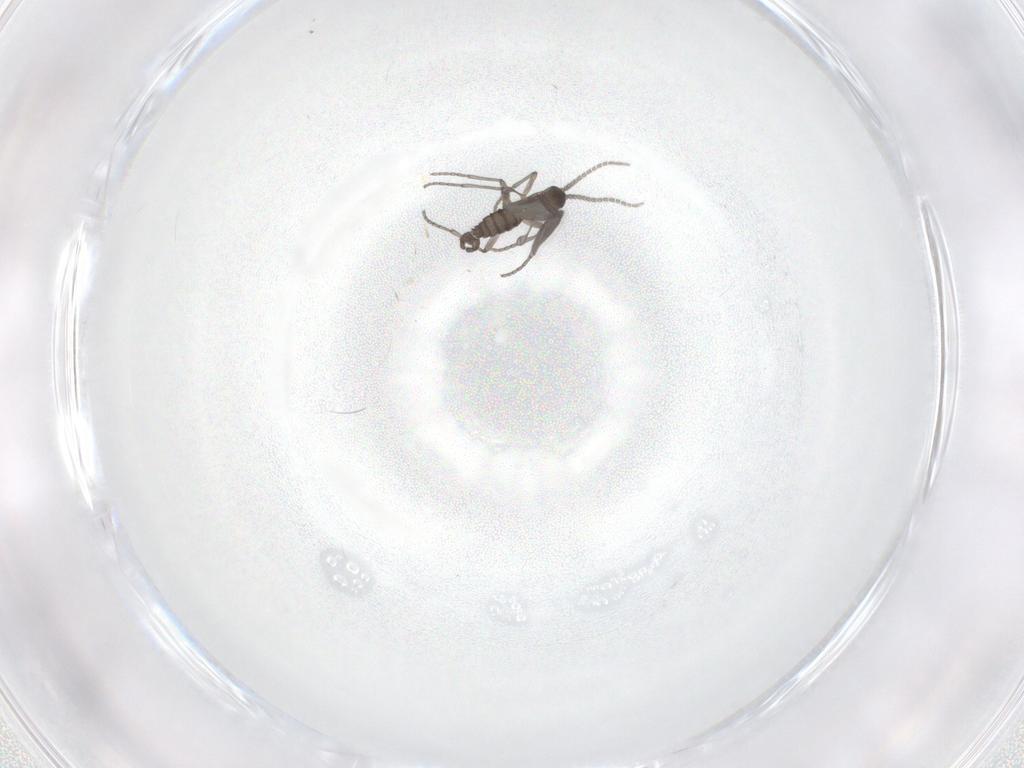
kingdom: Animalia
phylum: Arthropoda
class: Insecta
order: Diptera
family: Sciaridae
